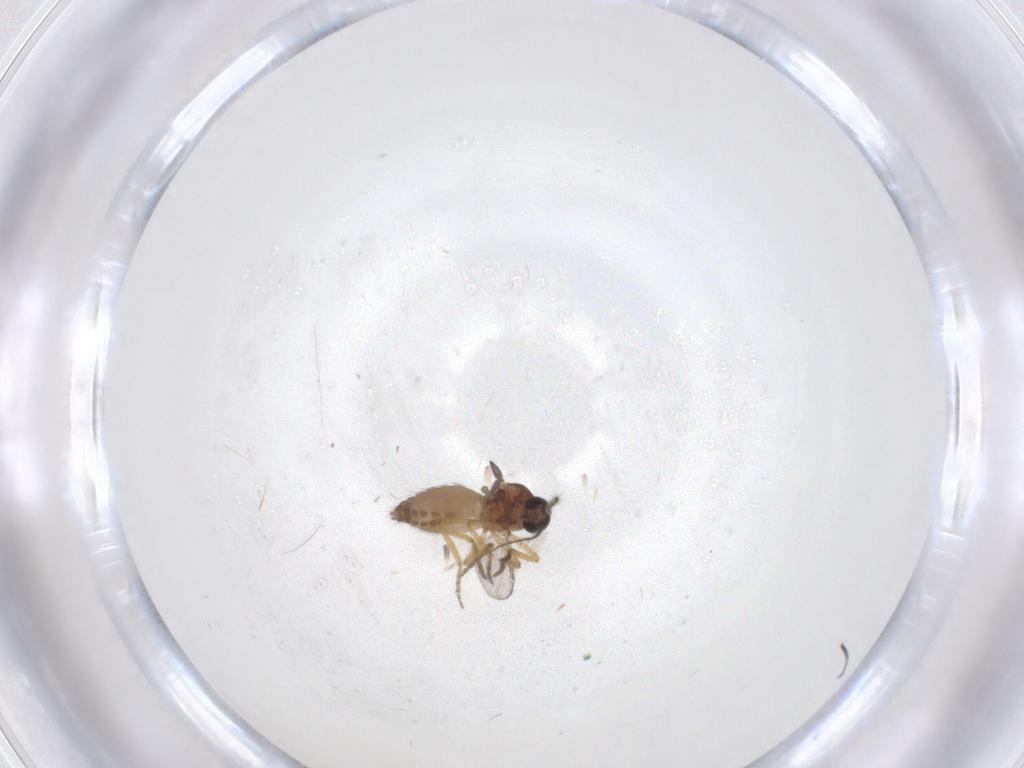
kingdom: Animalia
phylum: Arthropoda
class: Insecta
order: Diptera
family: Ceratopogonidae
